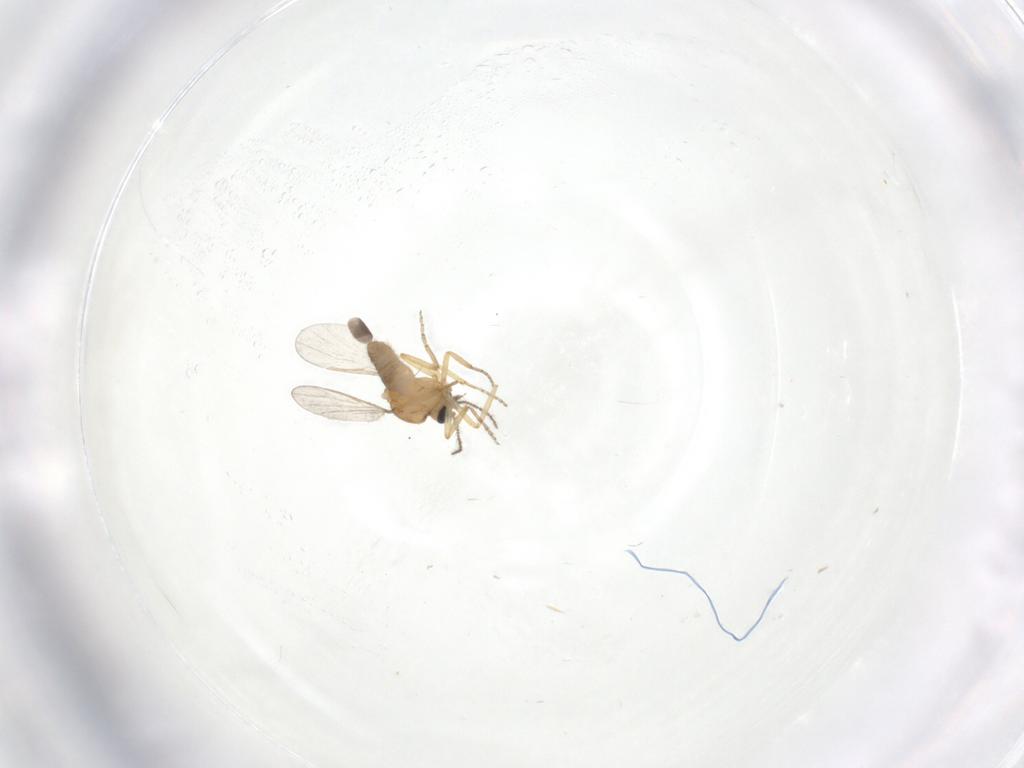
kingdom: Animalia
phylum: Arthropoda
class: Insecta
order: Diptera
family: Ceratopogonidae
